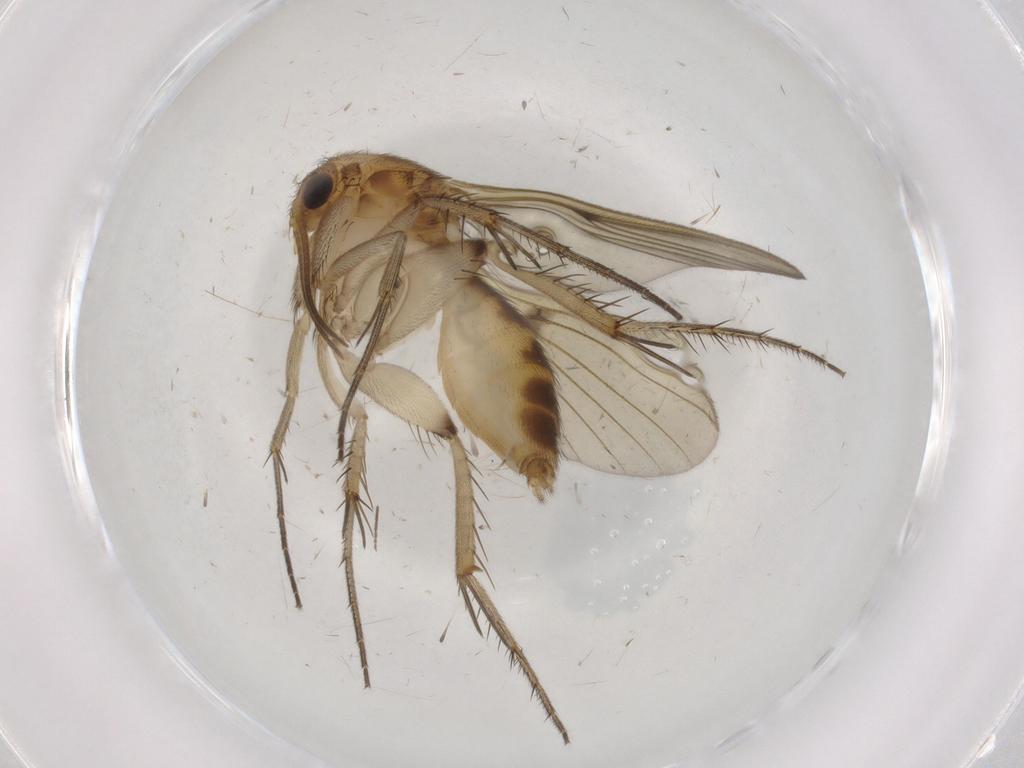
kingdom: Animalia
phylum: Arthropoda
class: Insecta
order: Diptera
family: Mycetophilidae
